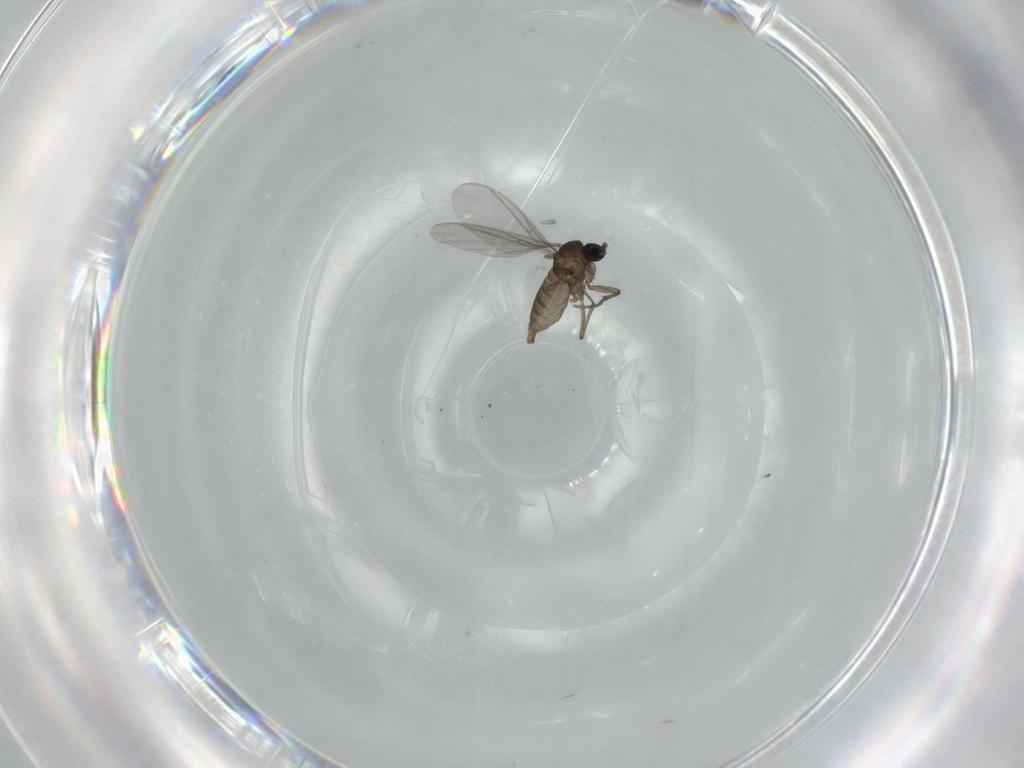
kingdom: Animalia
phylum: Arthropoda
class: Insecta
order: Diptera
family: Sciaridae
